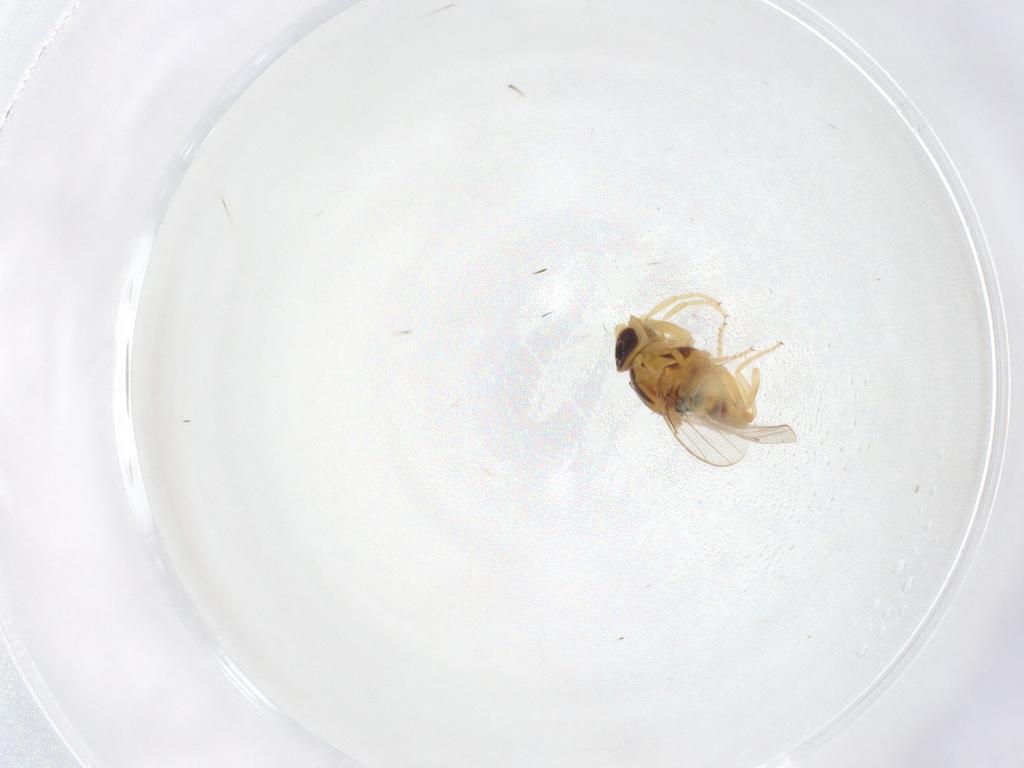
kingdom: Animalia
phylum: Arthropoda
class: Insecta
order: Diptera
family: Chloropidae
